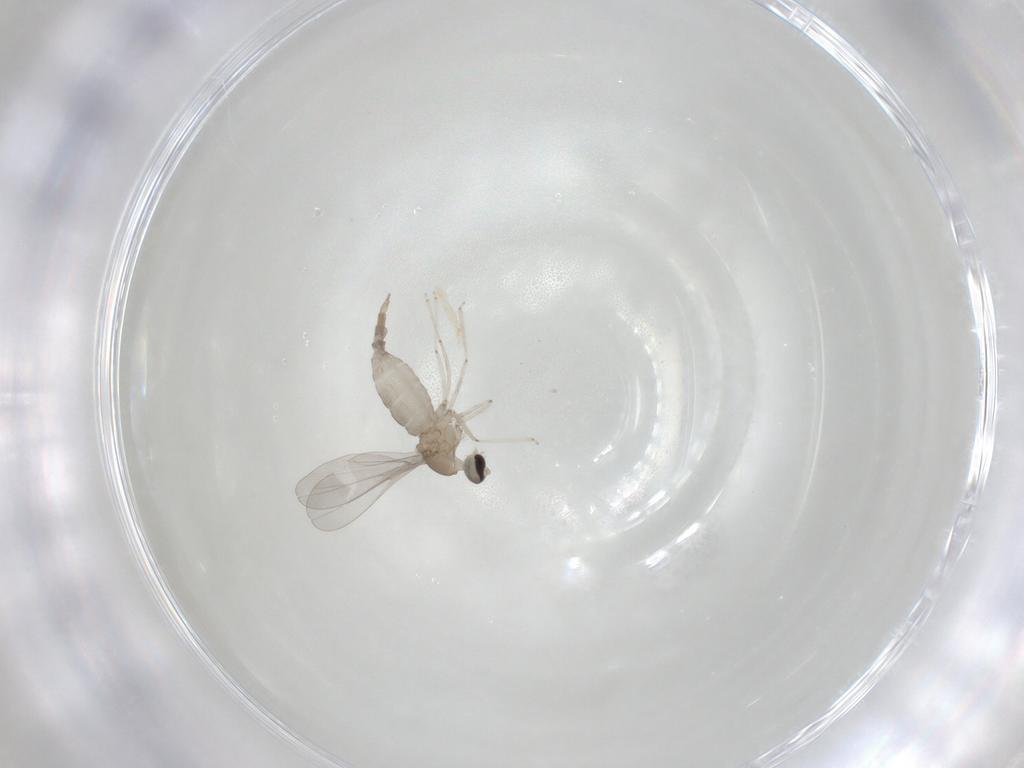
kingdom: Animalia
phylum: Arthropoda
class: Insecta
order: Diptera
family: Cecidomyiidae
